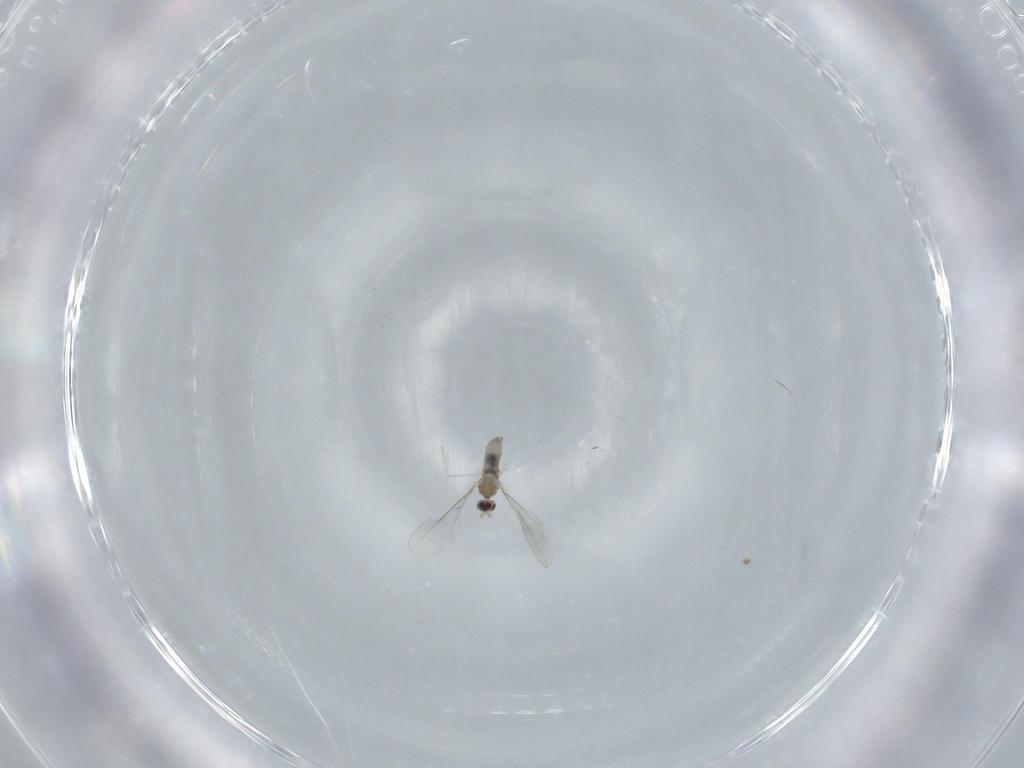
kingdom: Animalia
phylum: Arthropoda
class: Insecta
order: Diptera
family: Cecidomyiidae
